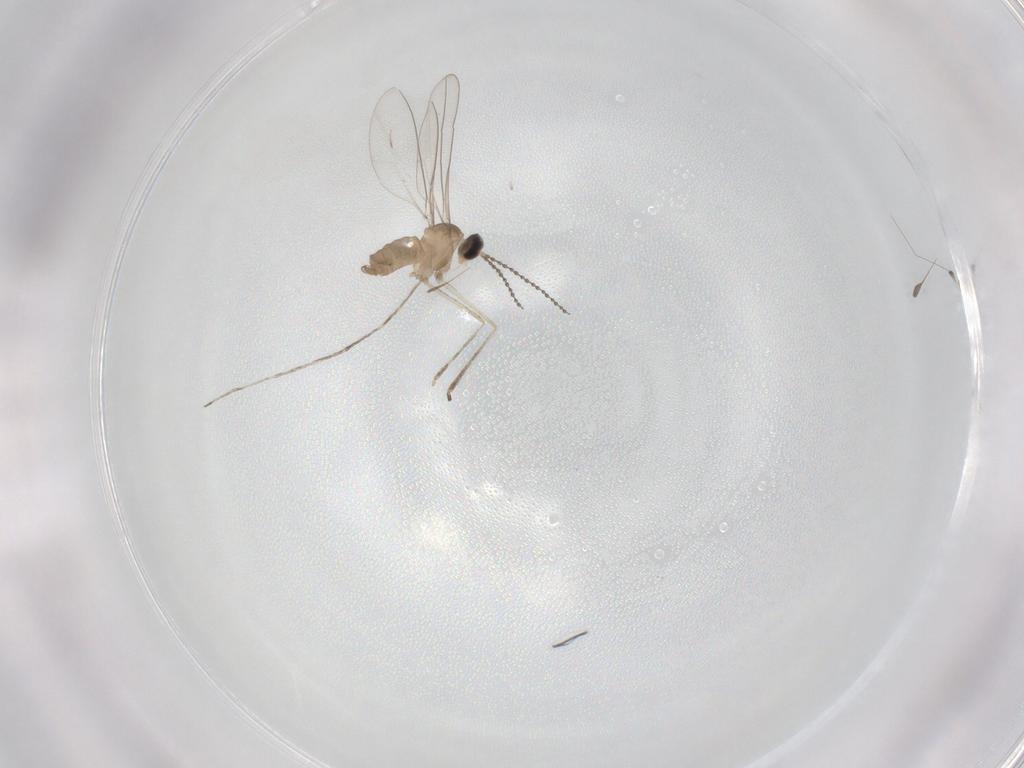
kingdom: Animalia
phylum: Arthropoda
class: Insecta
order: Diptera
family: Cecidomyiidae
